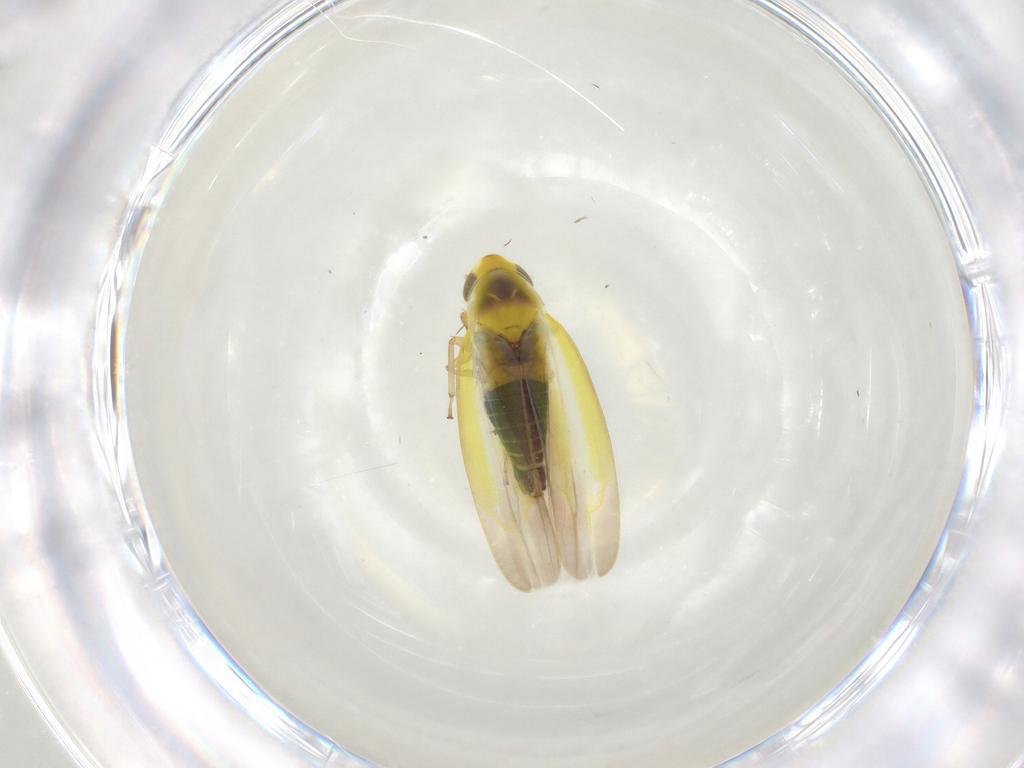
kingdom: Animalia
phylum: Arthropoda
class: Insecta
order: Hemiptera
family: Cicadellidae
